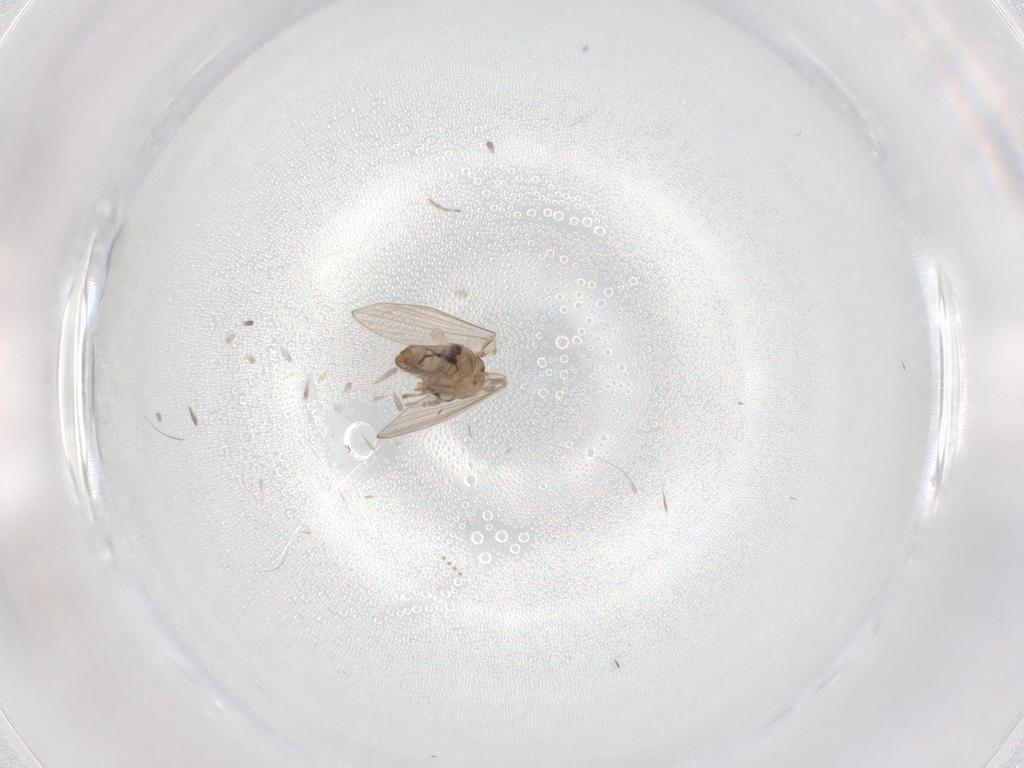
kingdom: Animalia
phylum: Arthropoda
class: Insecta
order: Diptera
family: Psychodidae
